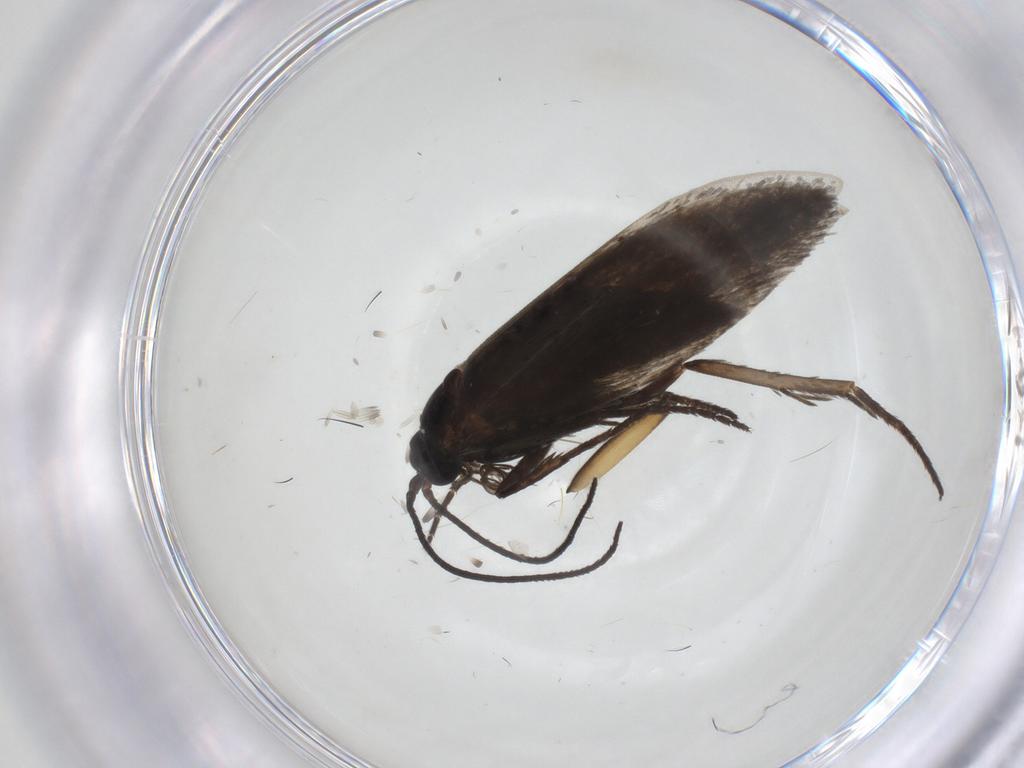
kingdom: Animalia
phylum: Arthropoda
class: Insecta
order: Lepidoptera
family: Adelidae
